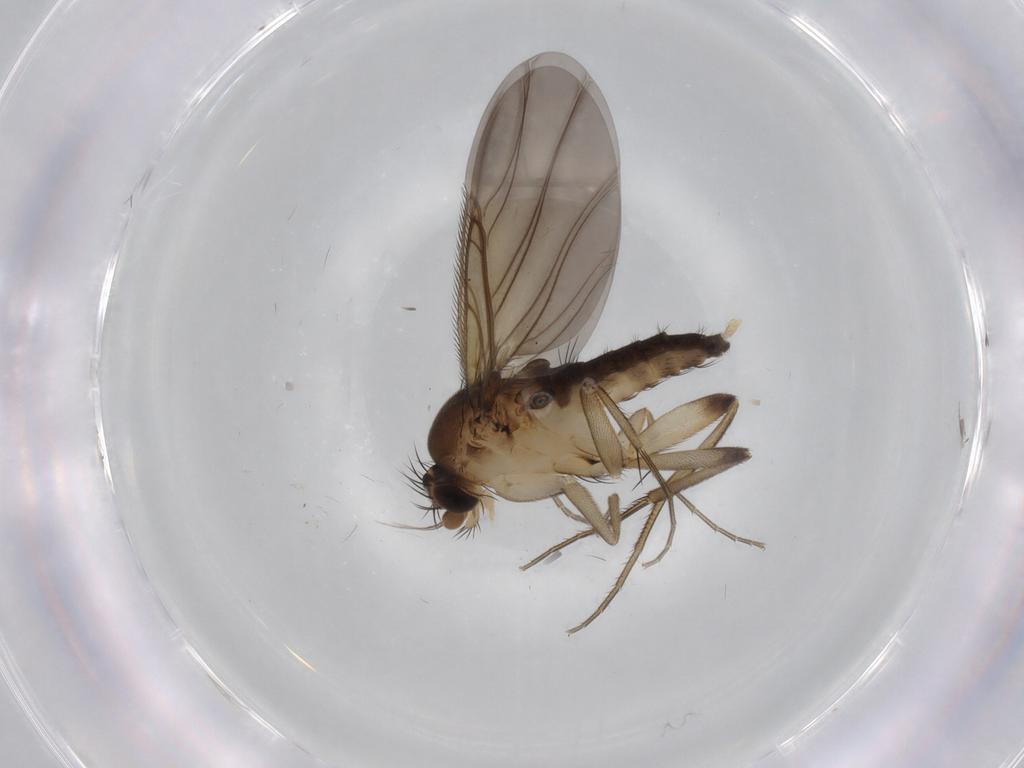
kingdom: Animalia
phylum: Arthropoda
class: Insecta
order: Diptera
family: Phoridae
